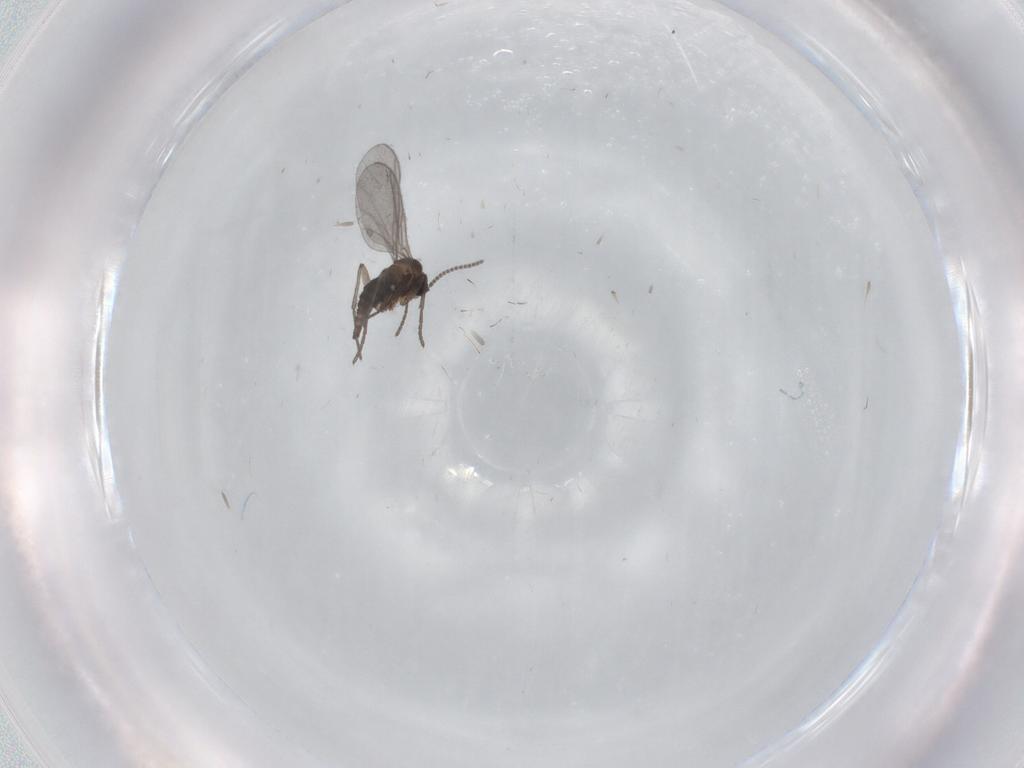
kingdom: Animalia
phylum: Arthropoda
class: Insecta
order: Diptera
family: Sciaridae
